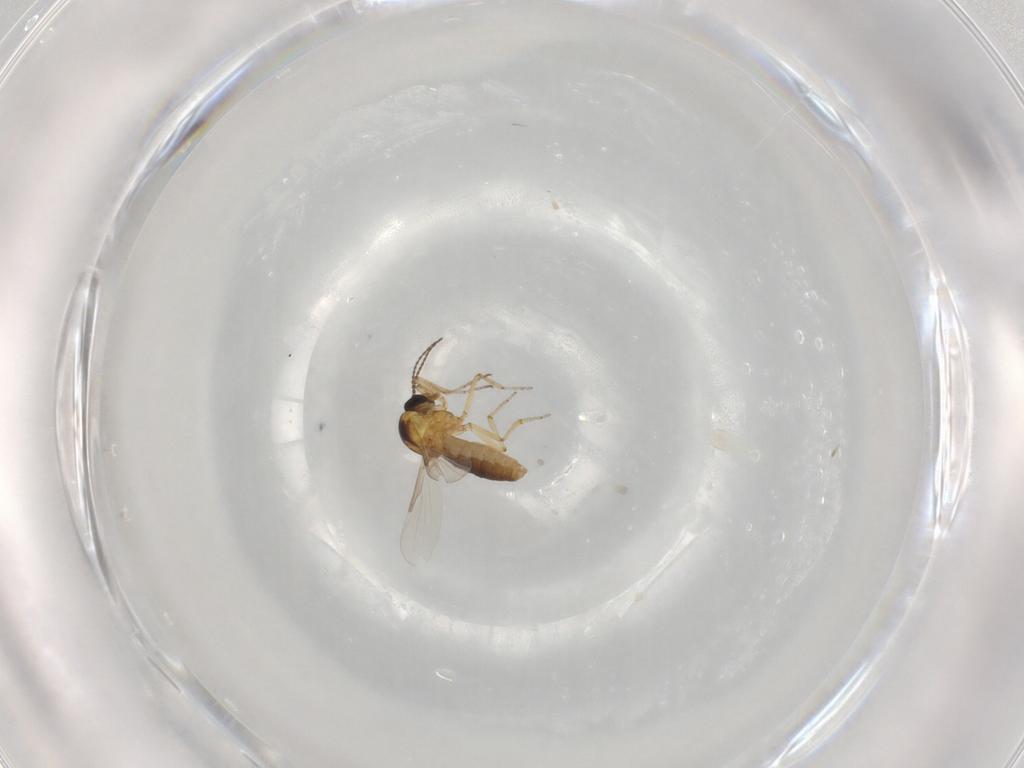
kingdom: Animalia
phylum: Arthropoda
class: Insecta
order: Diptera
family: Ceratopogonidae
